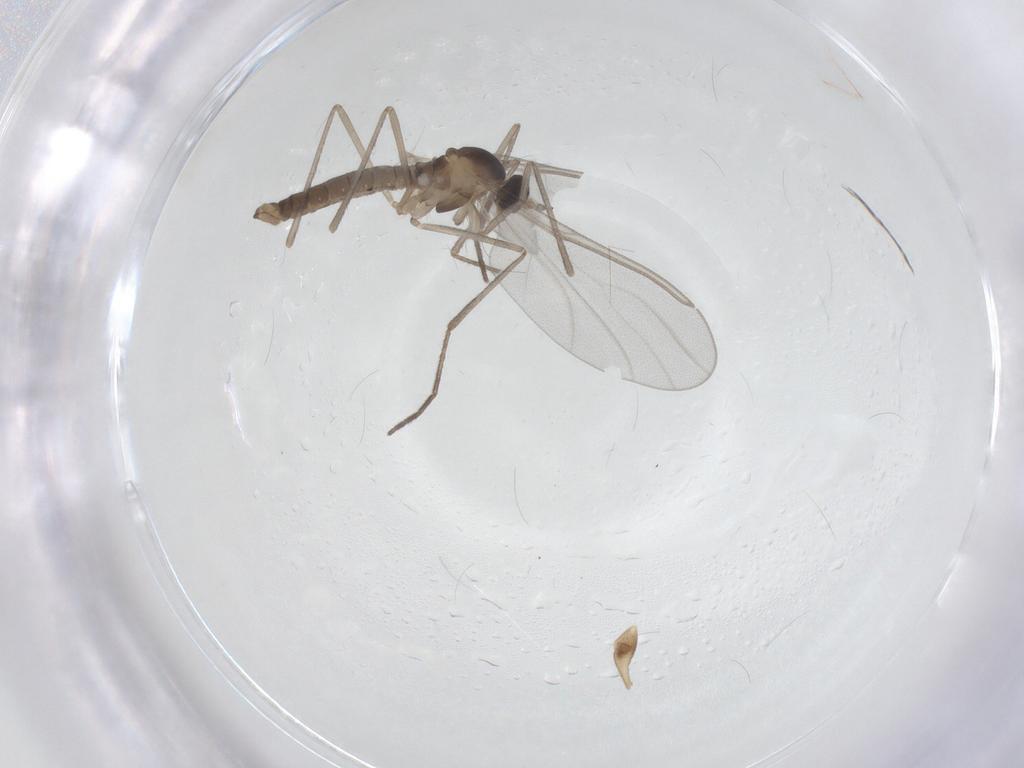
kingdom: Animalia
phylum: Arthropoda
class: Insecta
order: Diptera
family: Cecidomyiidae
